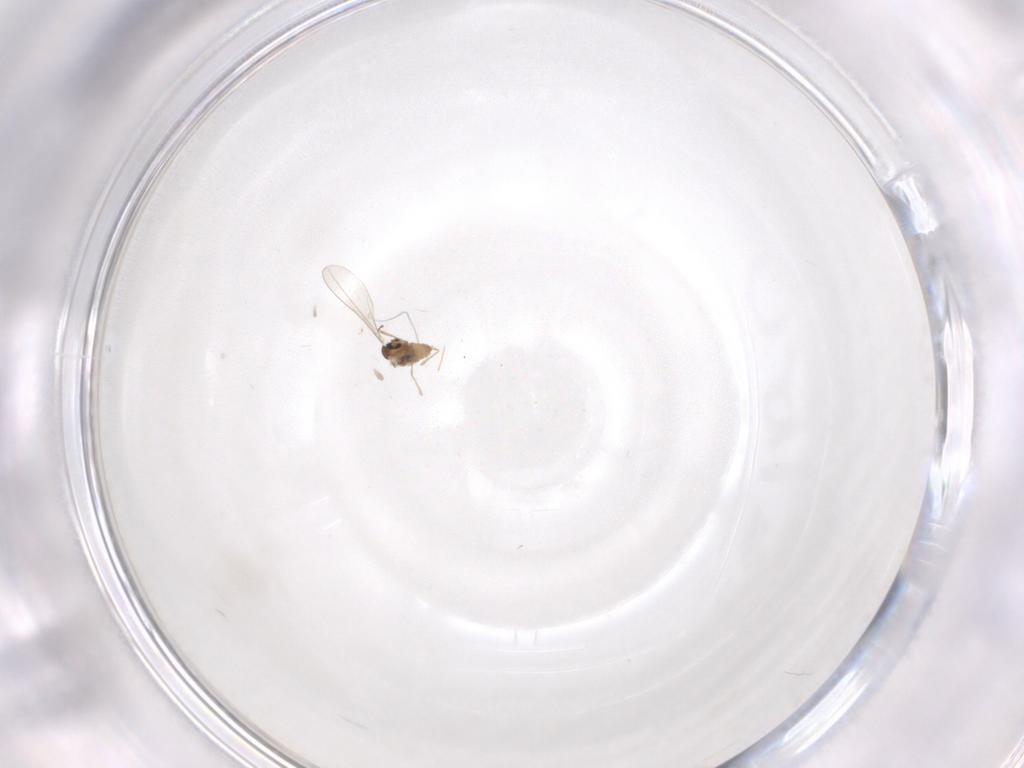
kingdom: Animalia
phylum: Arthropoda
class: Insecta
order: Diptera
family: Cecidomyiidae
